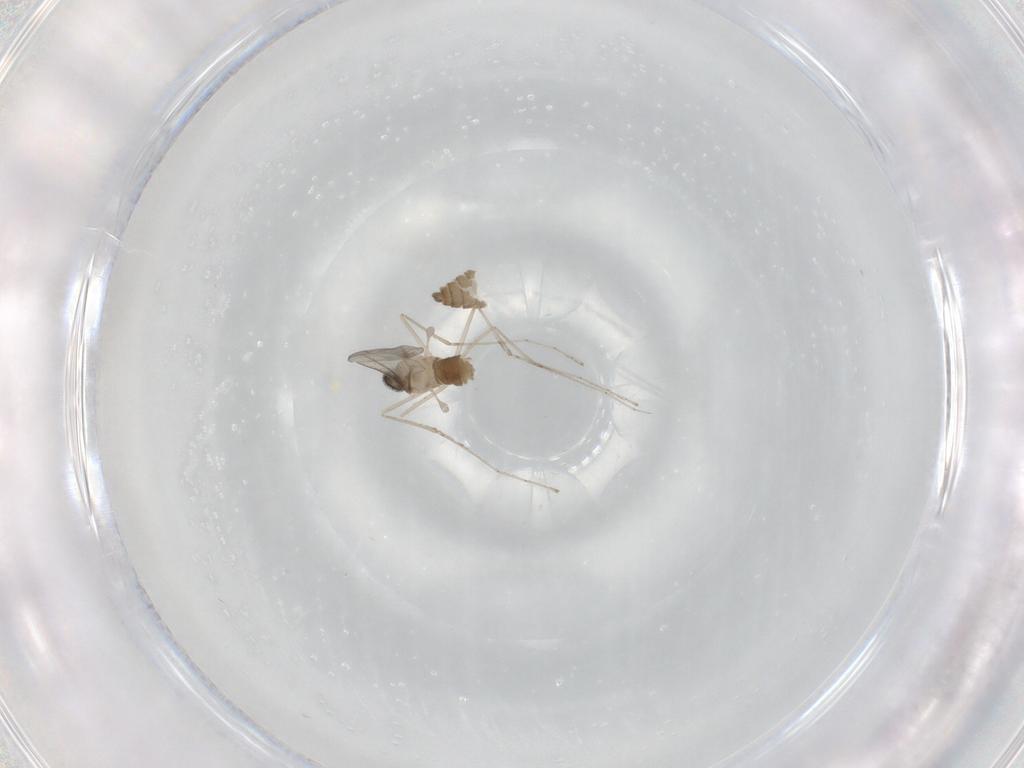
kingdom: Animalia
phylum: Arthropoda
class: Insecta
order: Diptera
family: Cecidomyiidae
